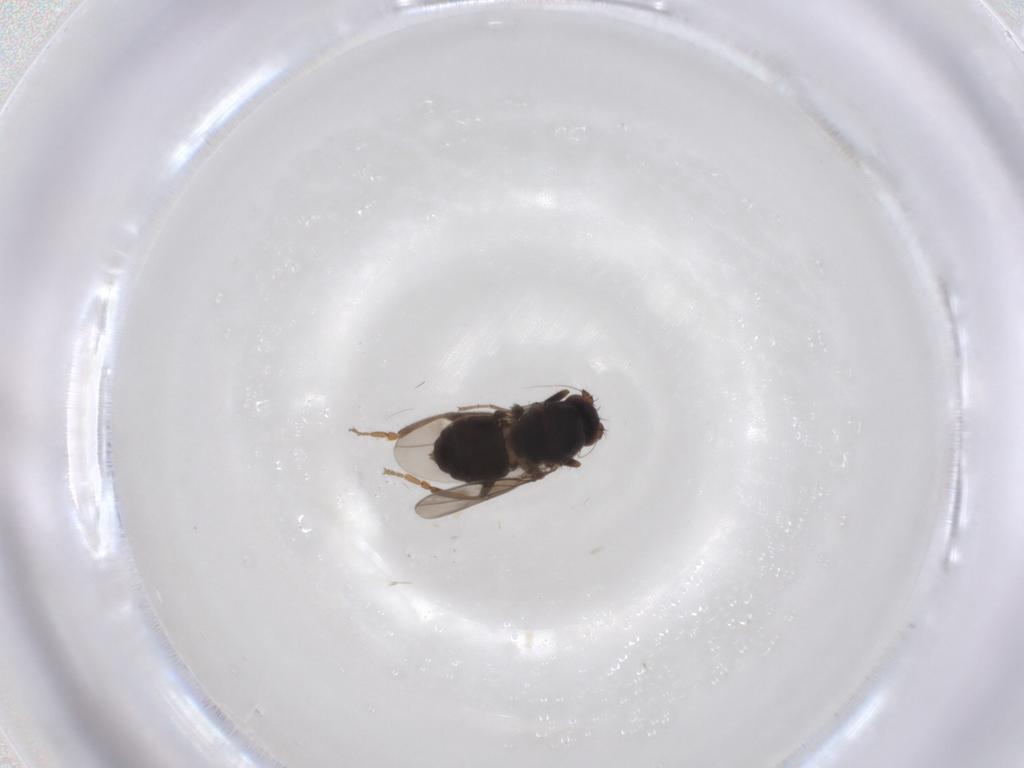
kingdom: Animalia
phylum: Arthropoda
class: Insecta
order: Diptera
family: Sphaeroceridae
